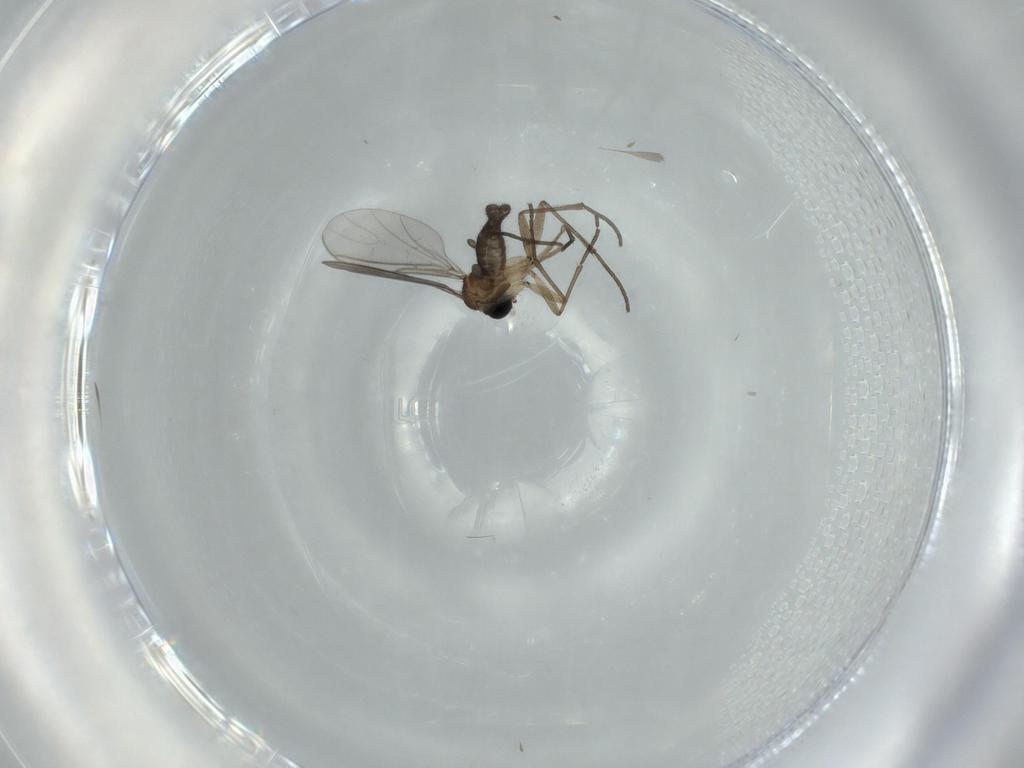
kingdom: Animalia
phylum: Arthropoda
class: Insecta
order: Diptera
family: Sciaridae
